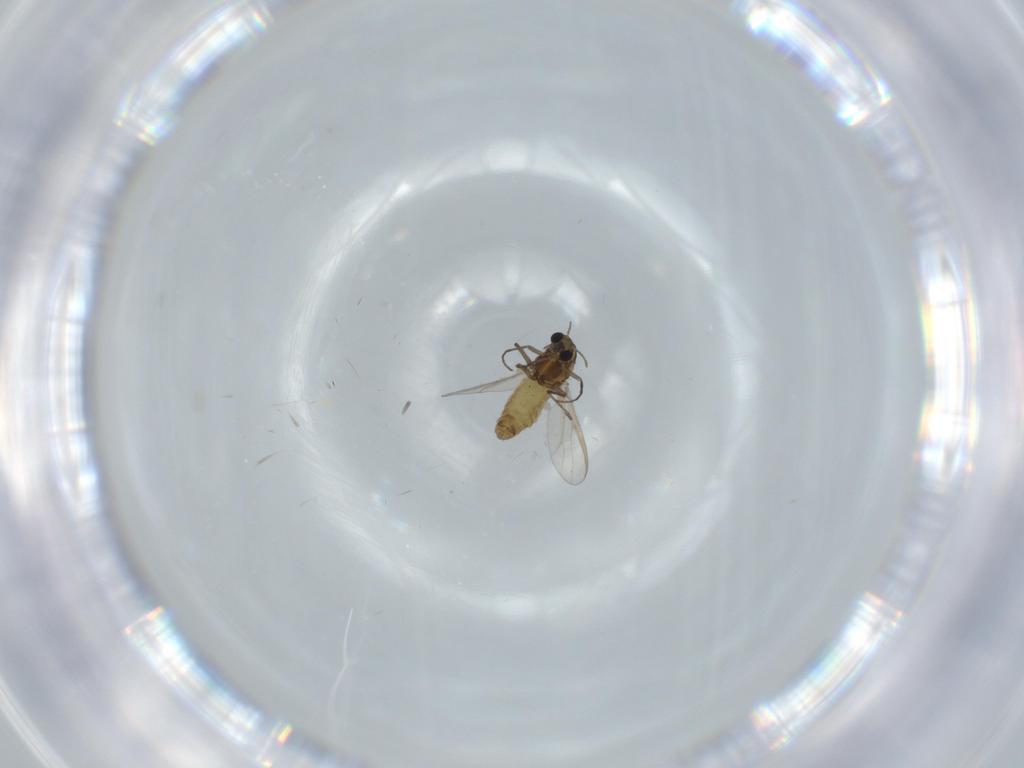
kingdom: Animalia
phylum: Arthropoda
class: Insecta
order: Diptera
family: Chironomidae
